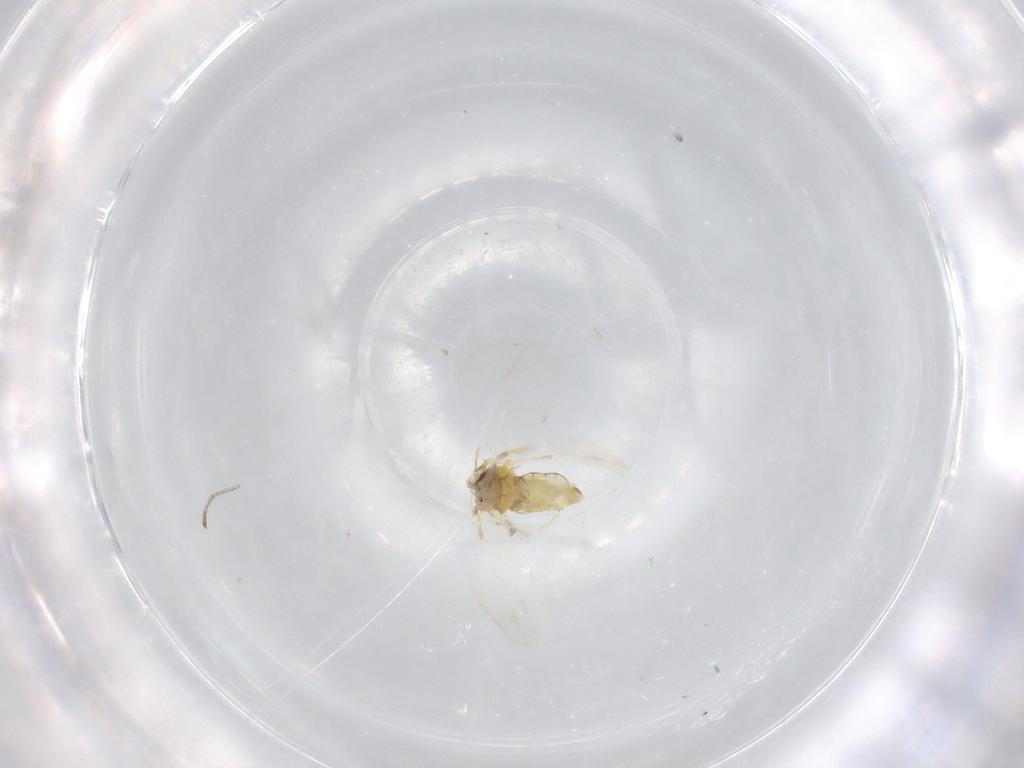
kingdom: Animalia
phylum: Arthropoda
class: Insecta
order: Hemiptera
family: Aleyrodidae
